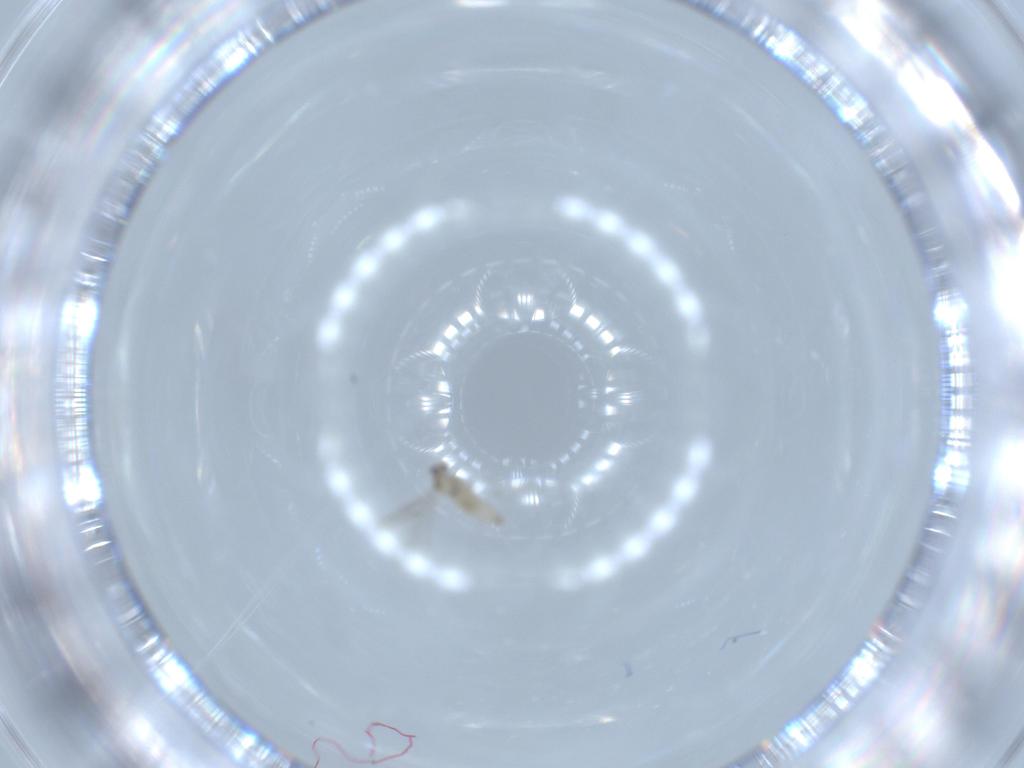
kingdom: Animalia
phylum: Arthropoda
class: Insecta
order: Diptera
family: Cecidomyiidae
